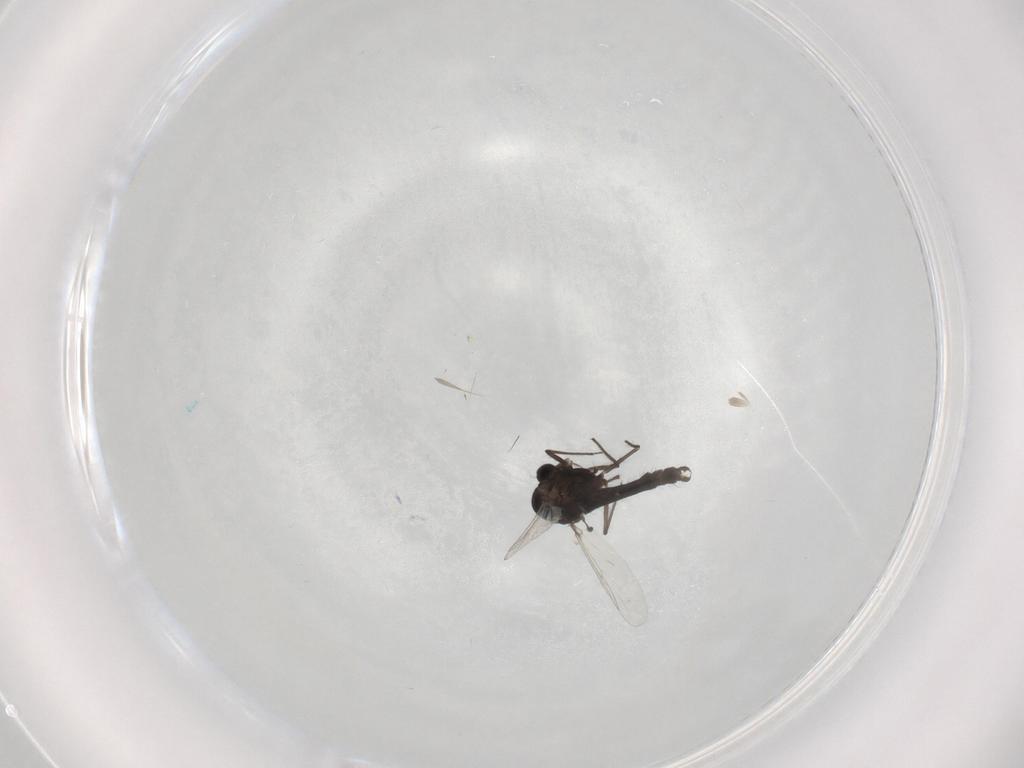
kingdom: Animalia
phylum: Arthropoda
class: Insecta
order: Diptera
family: Chironomidae
